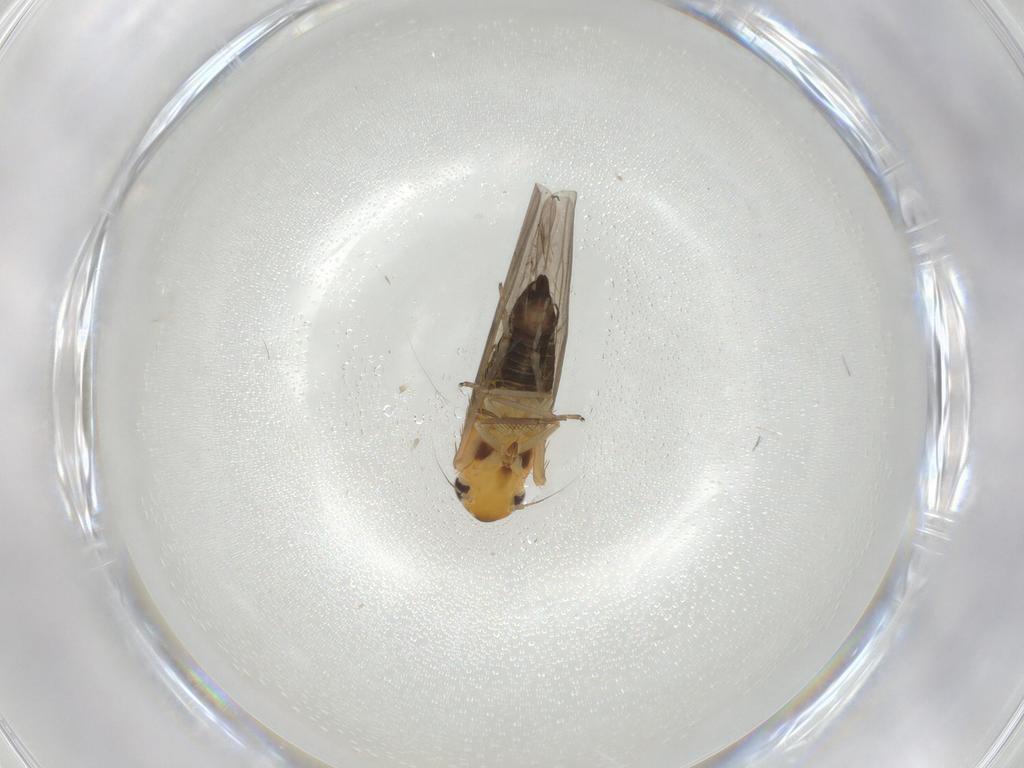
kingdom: Animalia
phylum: Arthropoda
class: Insecta
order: Hemiptera
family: Cicadellidae
